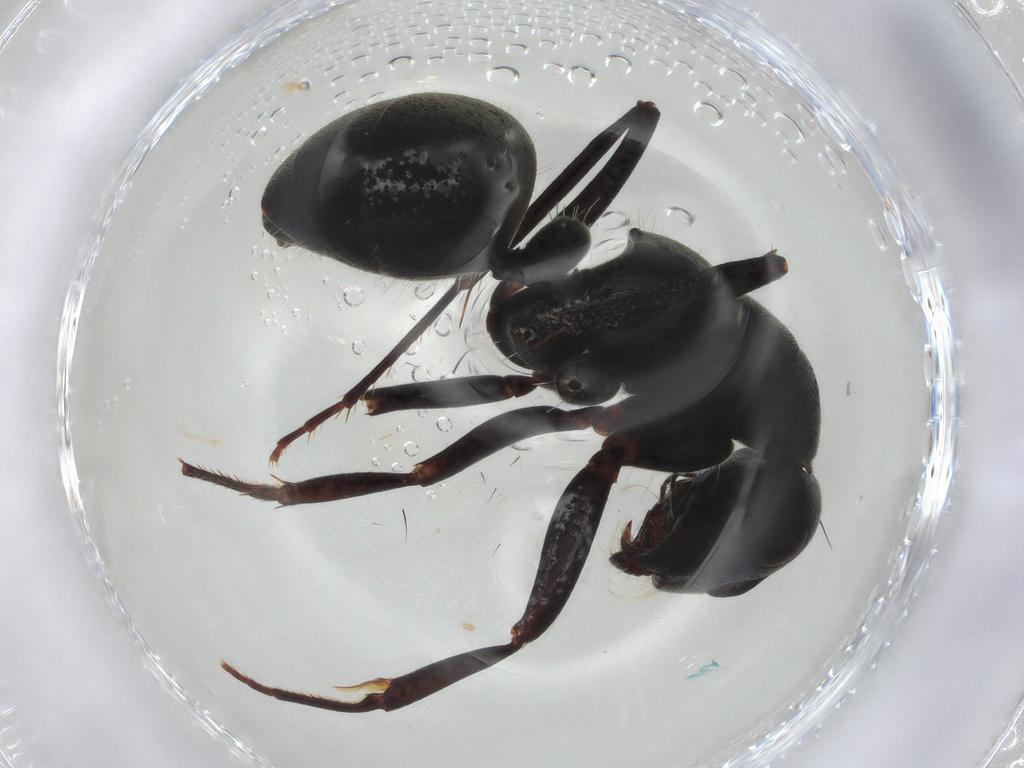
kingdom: Animalia
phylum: Arthropoda
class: Insecta
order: Hymenoptera
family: Formicidae
